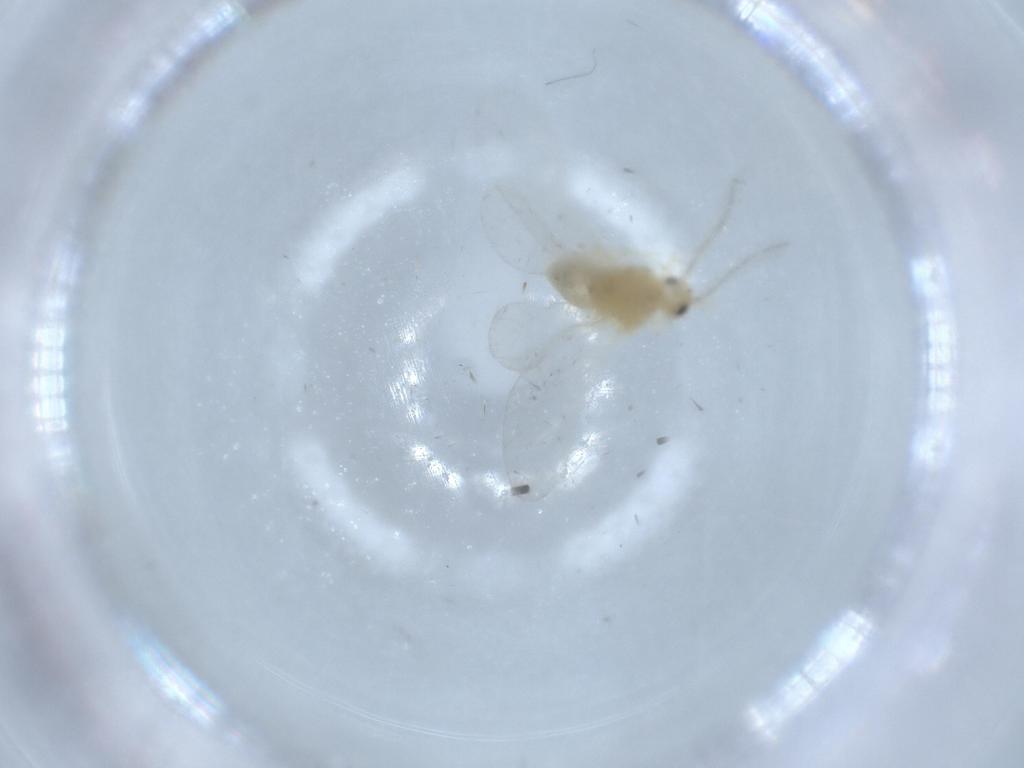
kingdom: Animalia
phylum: Arthropoda
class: Insecta
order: Neuroptera
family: Coniopterygidae
